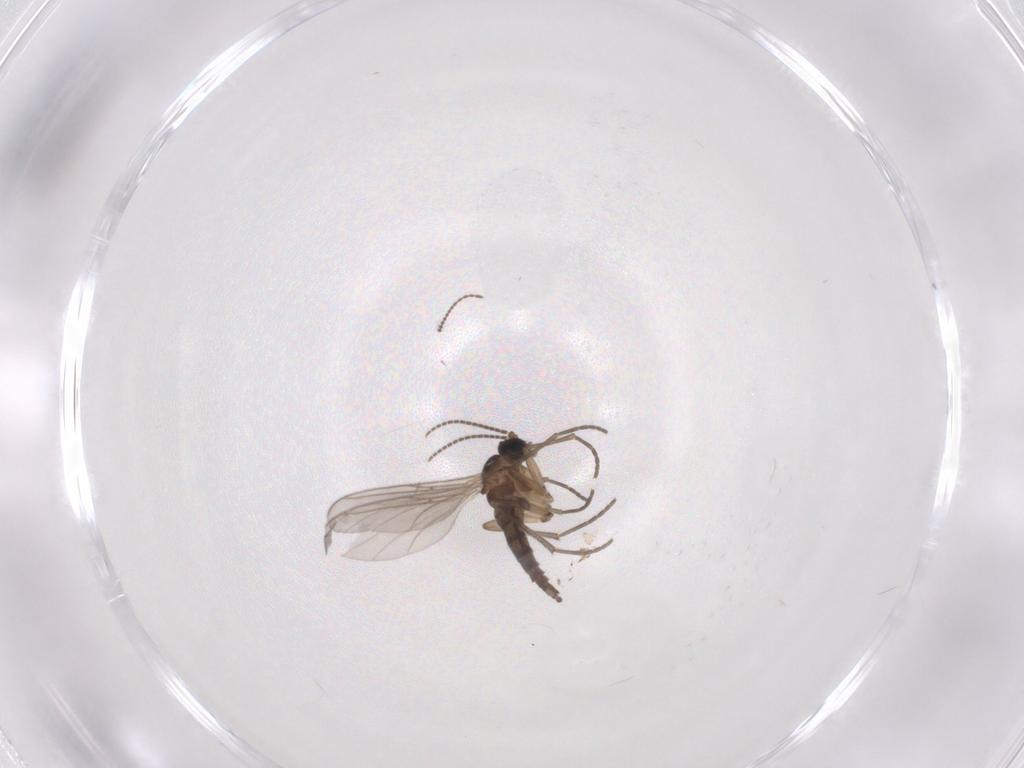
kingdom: Animalia
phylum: Arthropoda
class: Insecta
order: Diptera
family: Ceratopogonidae
